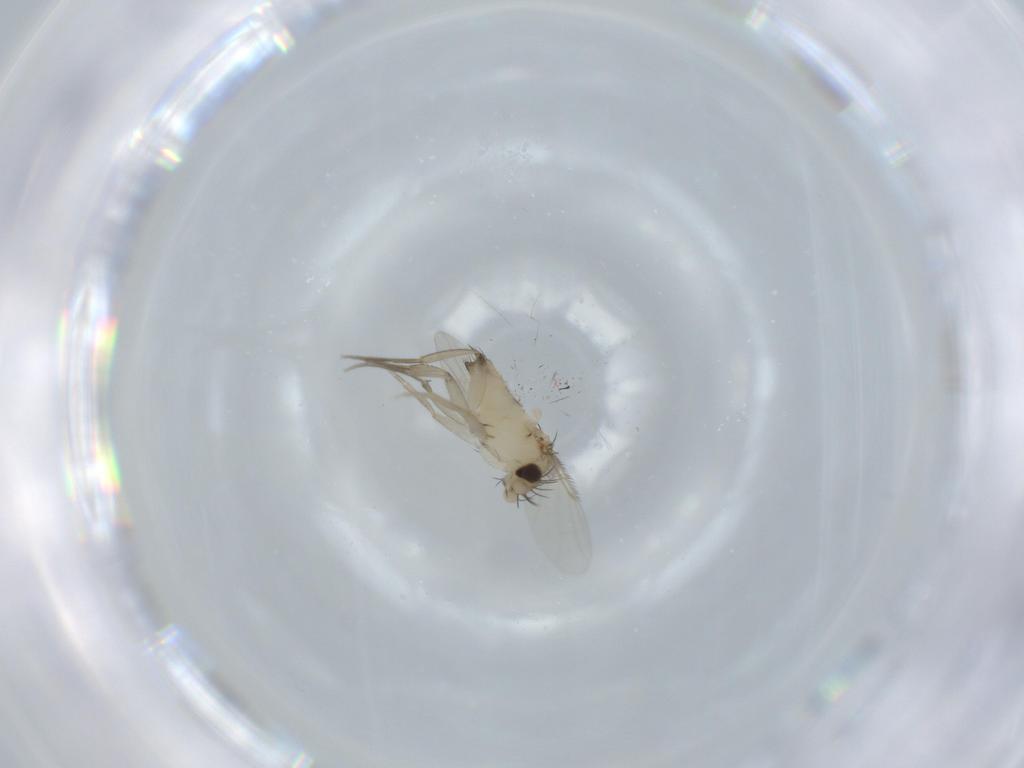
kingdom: Animalia
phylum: Arthropoda
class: Insecta
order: Diptera
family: Phoridae
